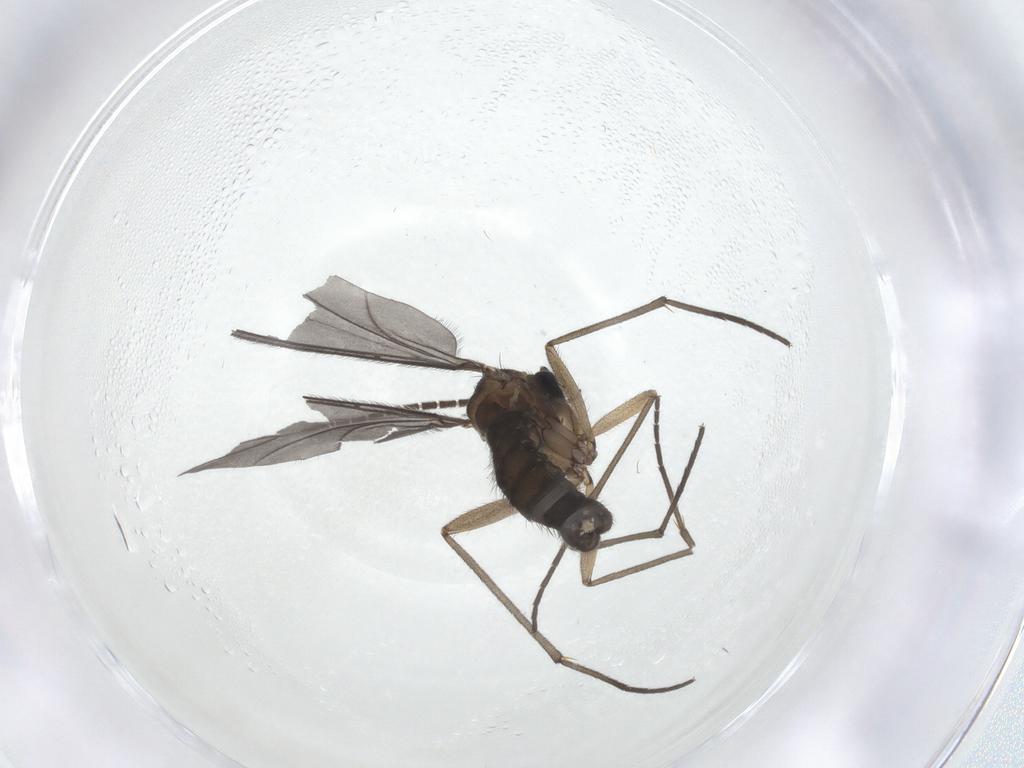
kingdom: Animalia
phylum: Arthropoda
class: Insecta
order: Diptera
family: Sciaridae
